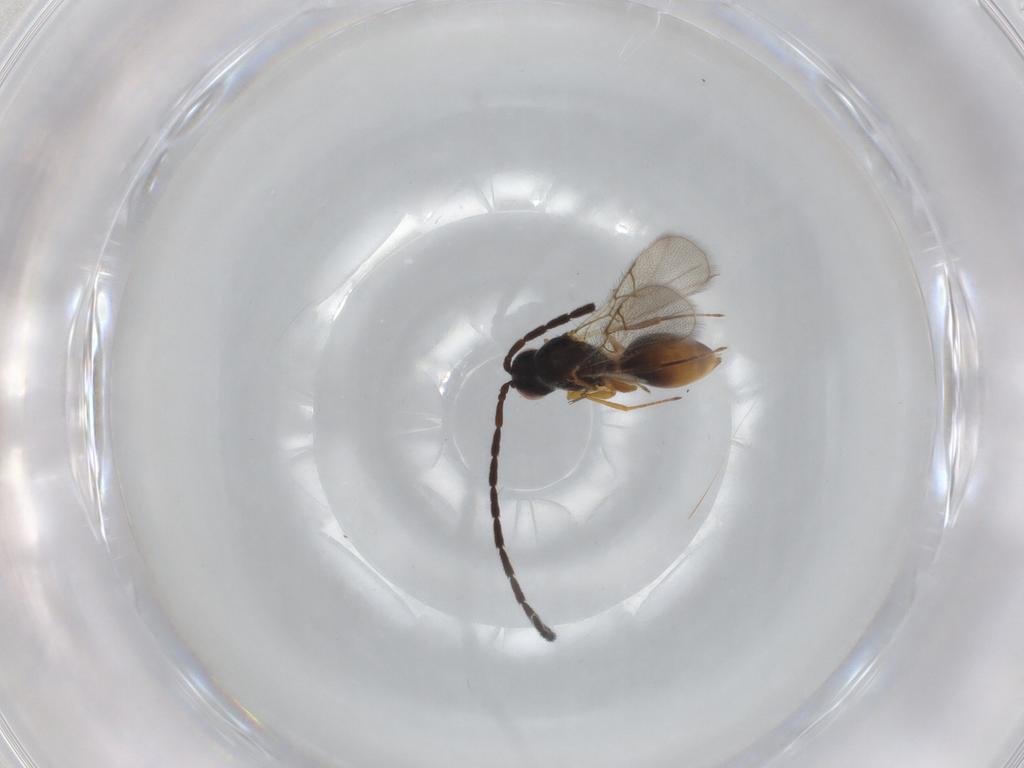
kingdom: Animalia
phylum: Arthropoda
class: Insecta
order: Hymenoptera
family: Figitidae
